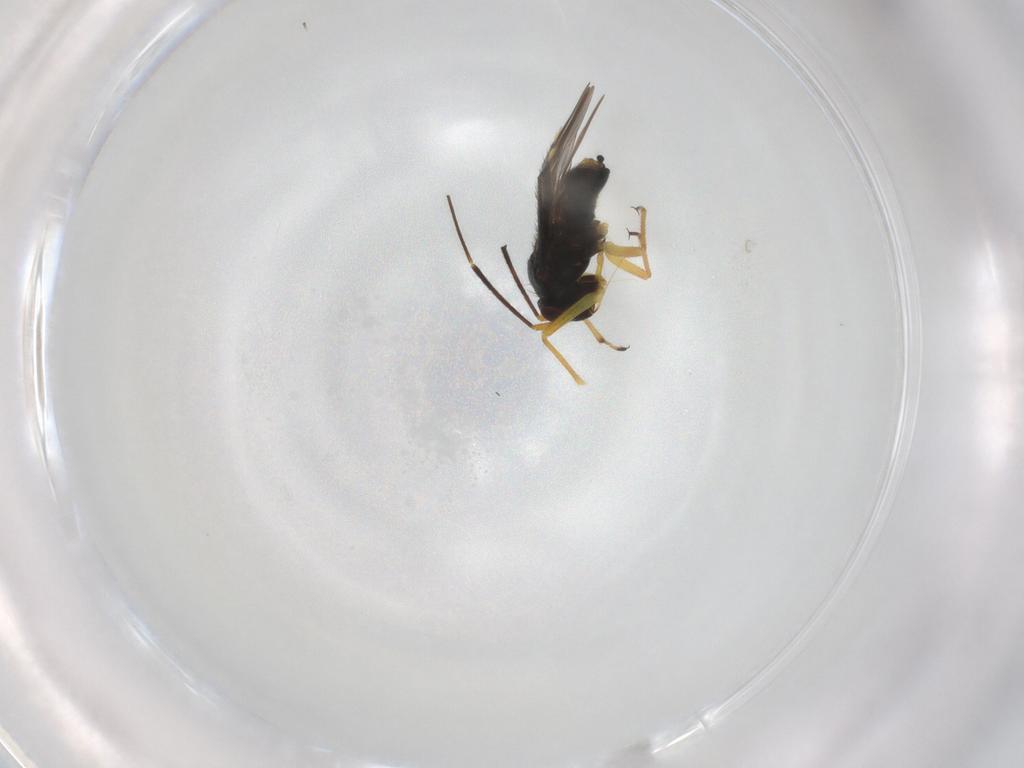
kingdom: Animalia
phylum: Arthropoda
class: Insecta
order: Hemiptera
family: Miridae
